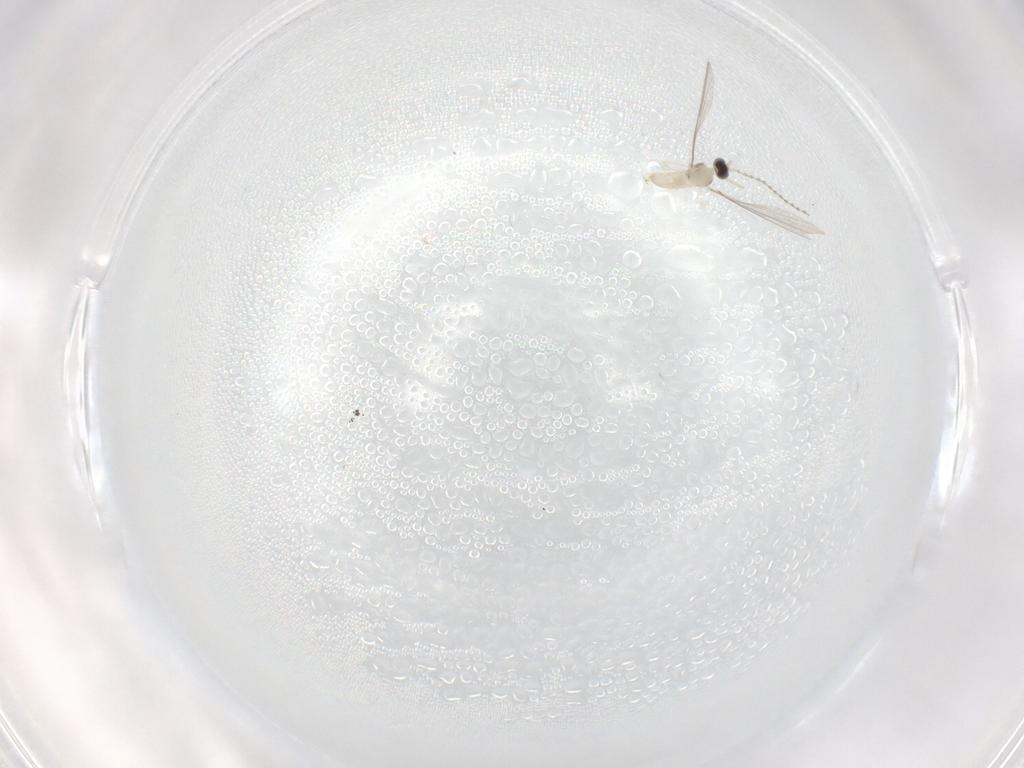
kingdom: Animalia
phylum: Arthropoda
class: Insecta
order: Diptera
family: Cecidomyiidae
